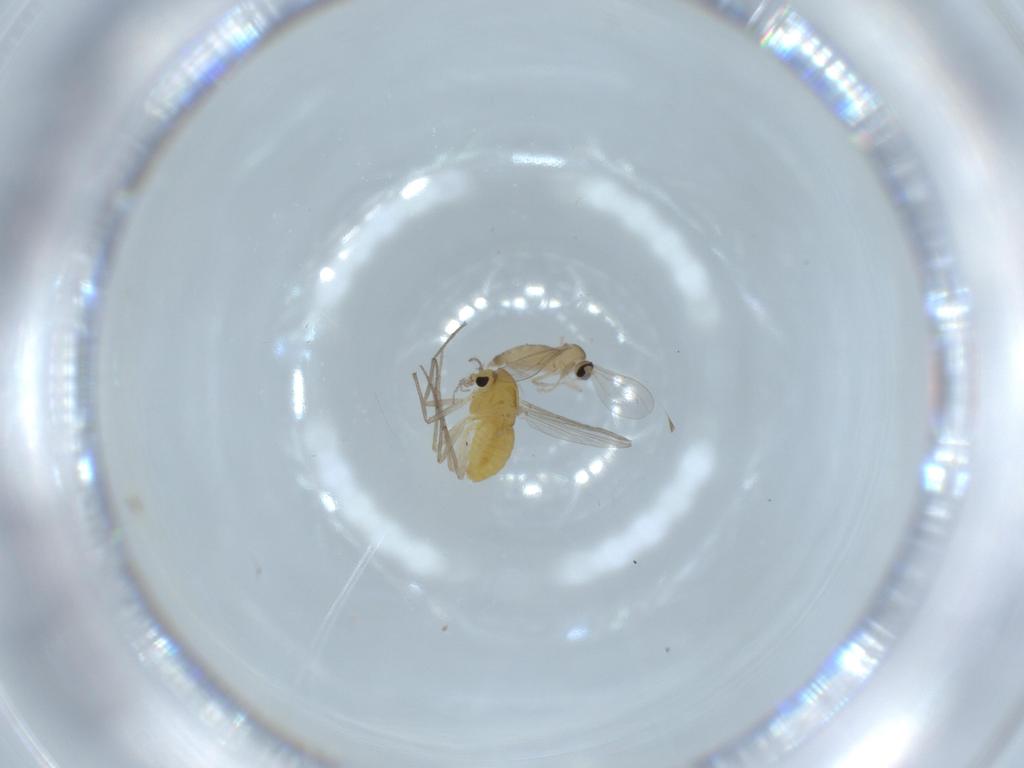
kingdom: Animalia
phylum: Arthropoda
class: Insecta
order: Diptera
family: Chironomidae
